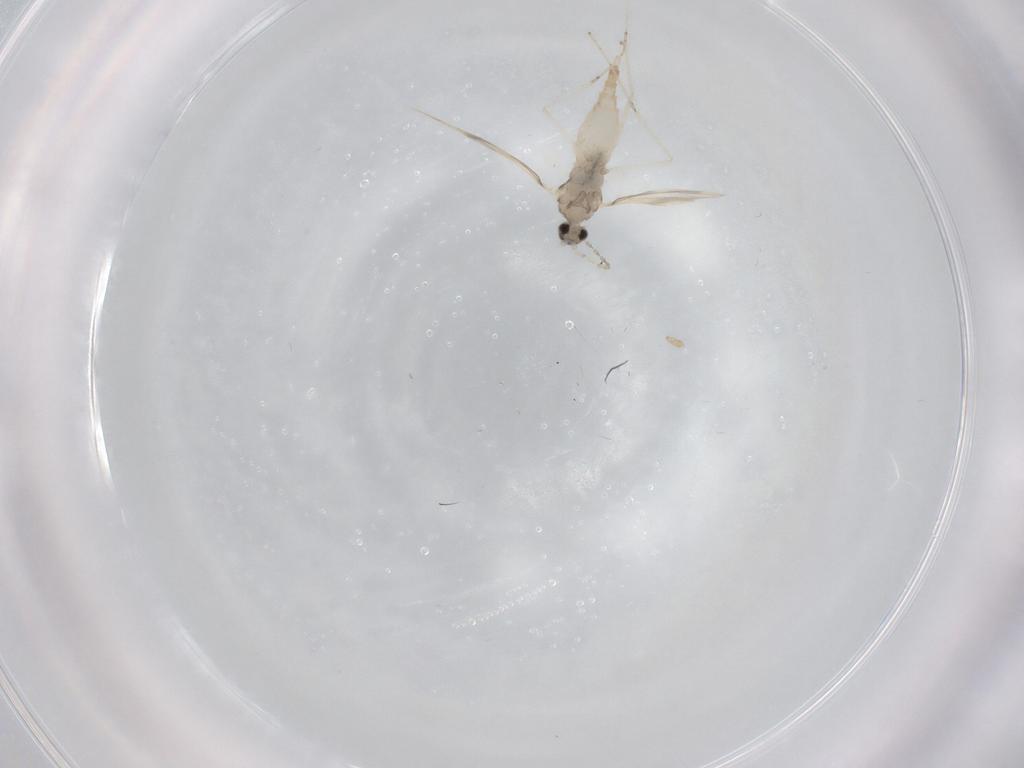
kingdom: Animalia
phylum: Arthropoda
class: Insecta
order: Diptera
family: Cecidomyiidae
